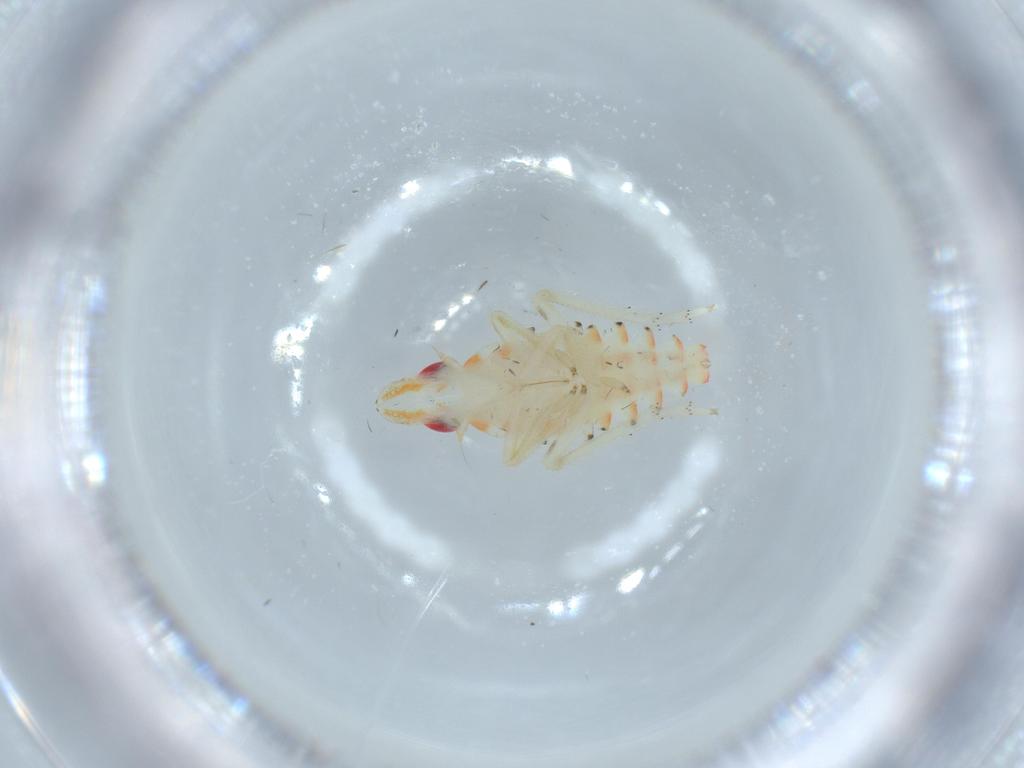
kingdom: Animalia
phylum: Arthropoda
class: Insecta
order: Hemiptera
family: Tropiduchidae
